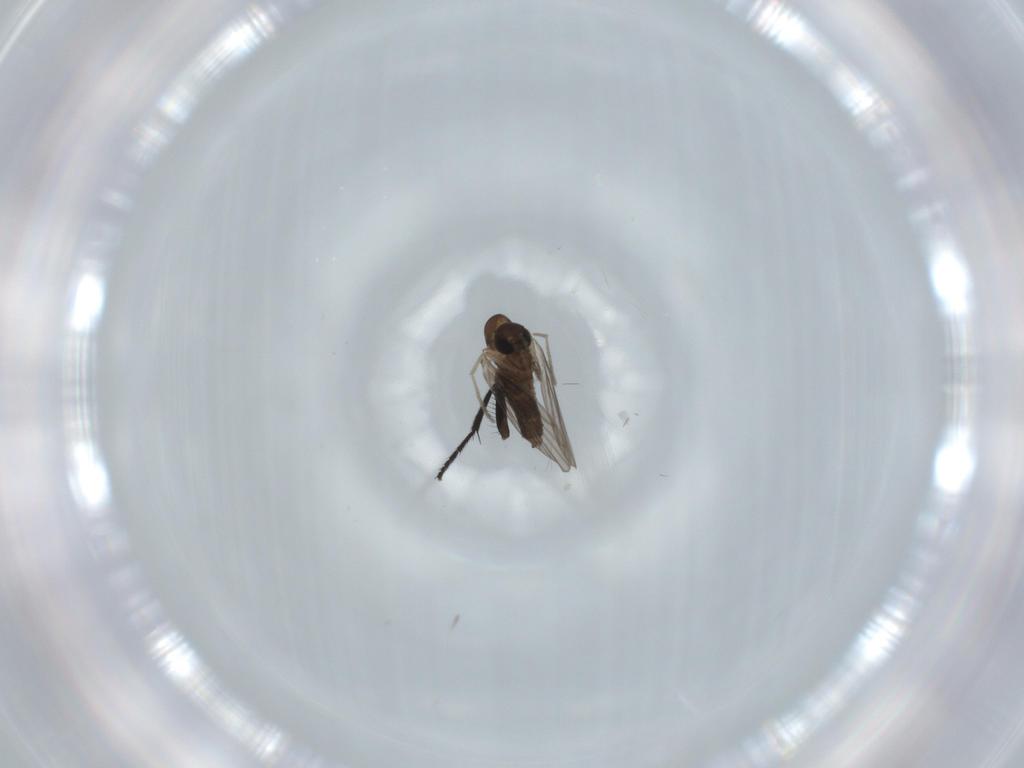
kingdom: Animalia
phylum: Arthropoda
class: Insecta
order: Diptera
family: Milichiidae
